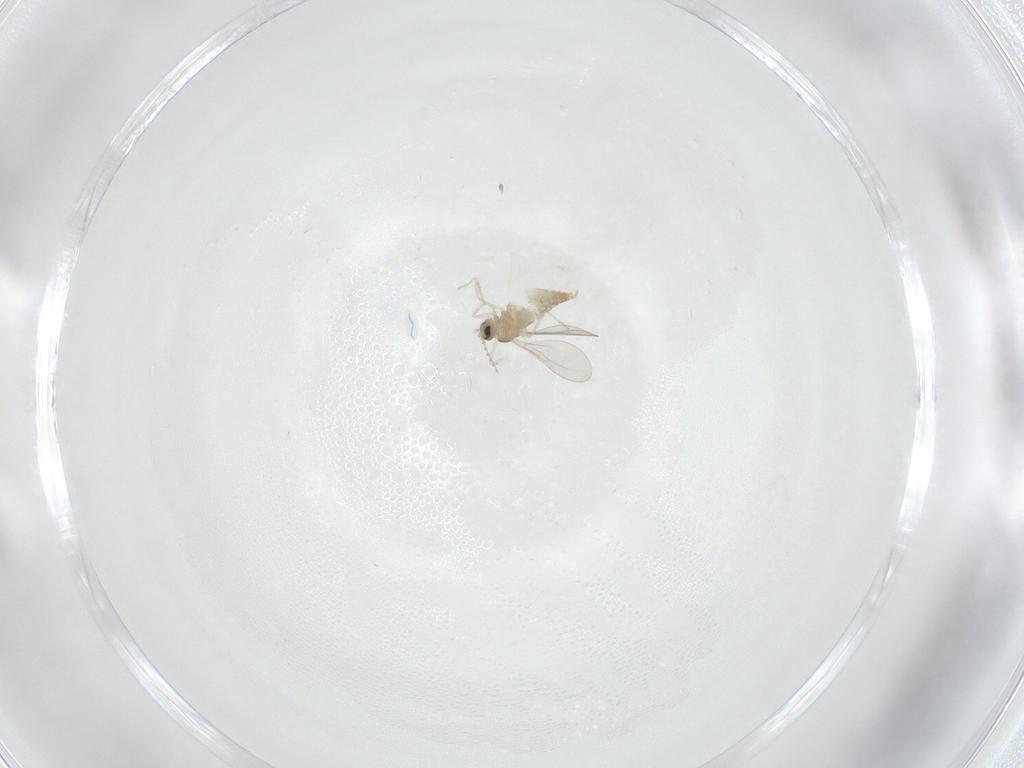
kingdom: Animalia
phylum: Arthropoda
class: Insecta
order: Diptera
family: Cecidomyiidae
